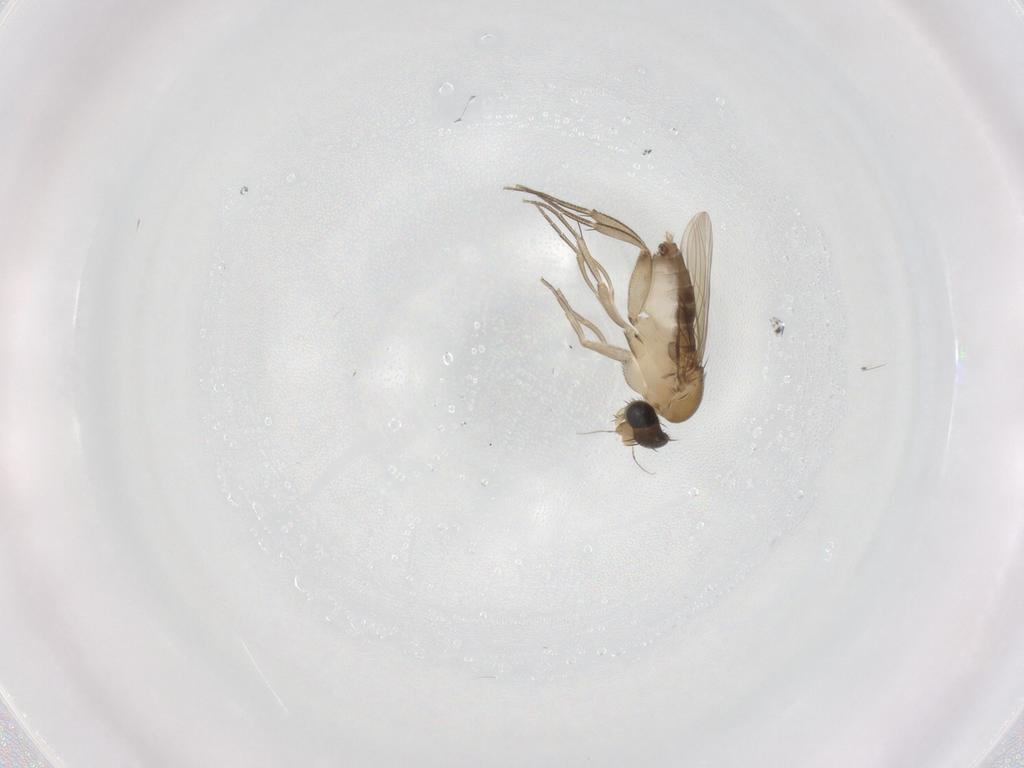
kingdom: Animalia
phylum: Arthropoda
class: Insecta
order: Diptera
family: Phoridae
